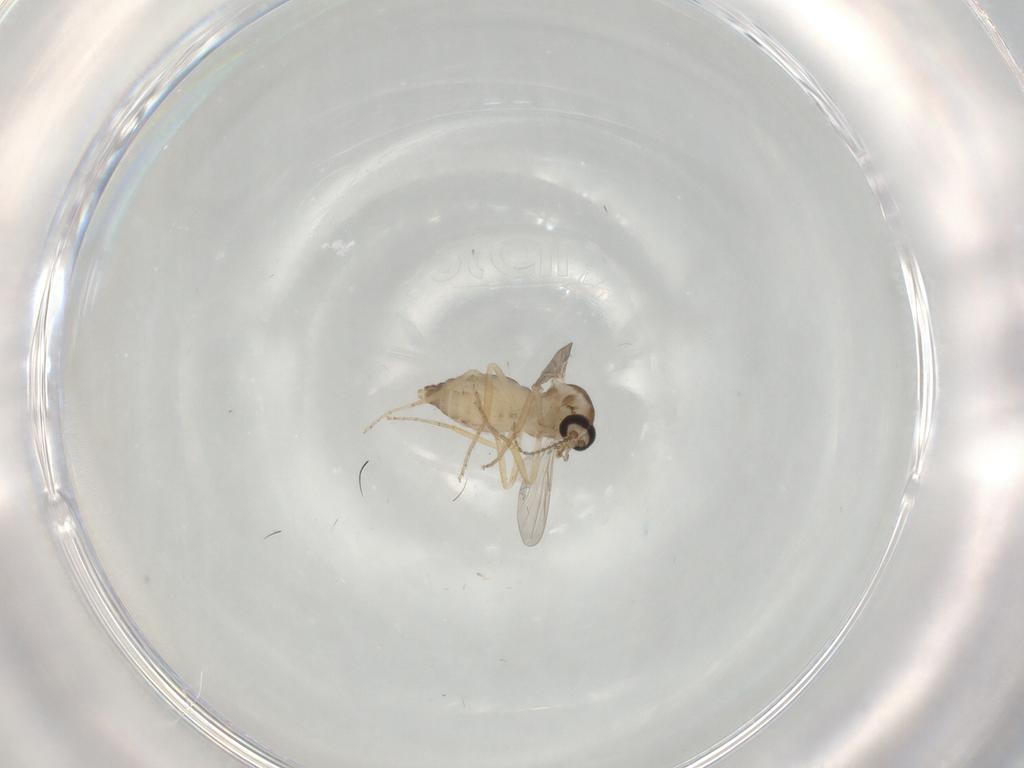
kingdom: Animalia
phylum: Arthropoda
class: Insecta
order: Diptera
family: Ceratopogonidae
